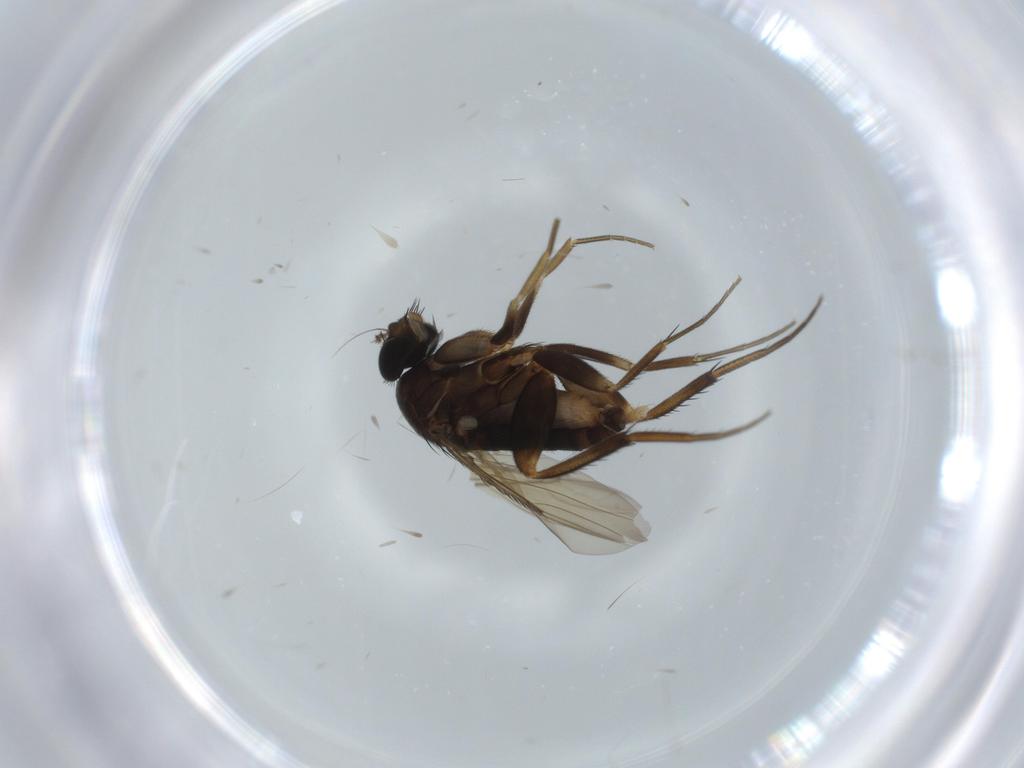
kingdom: Animalia
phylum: Arthropoda
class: Insecta
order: Diptera
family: Phoridae
